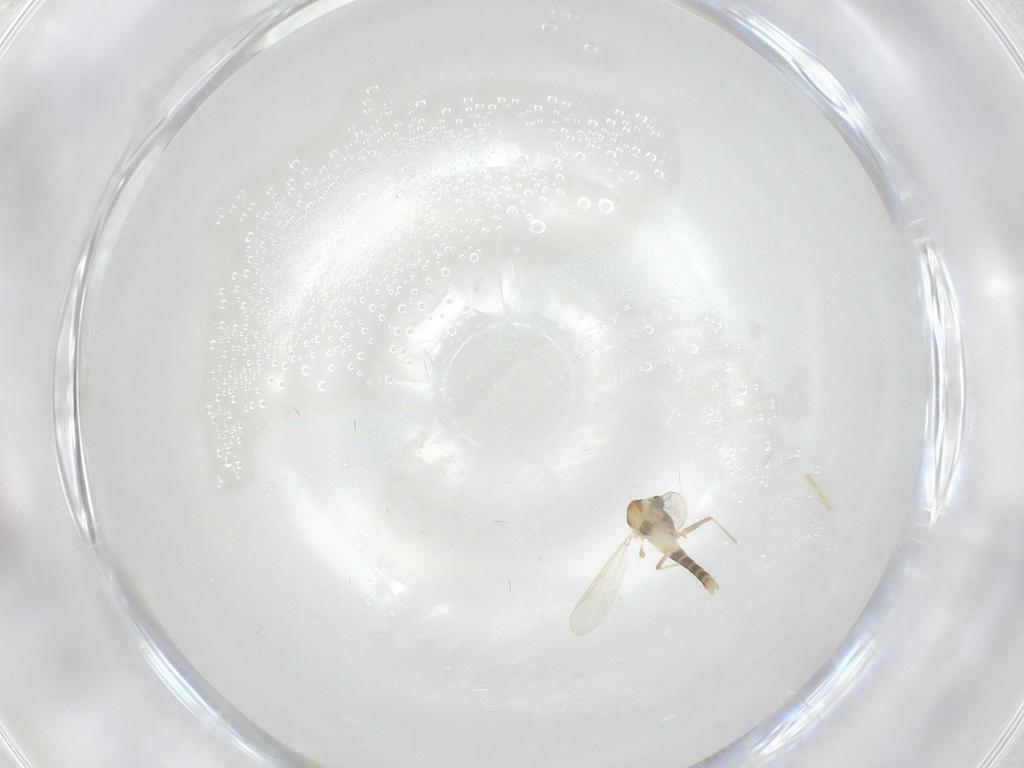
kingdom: Animalia
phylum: Arthropoda
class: Insecta
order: Diptera
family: Chironomidae
